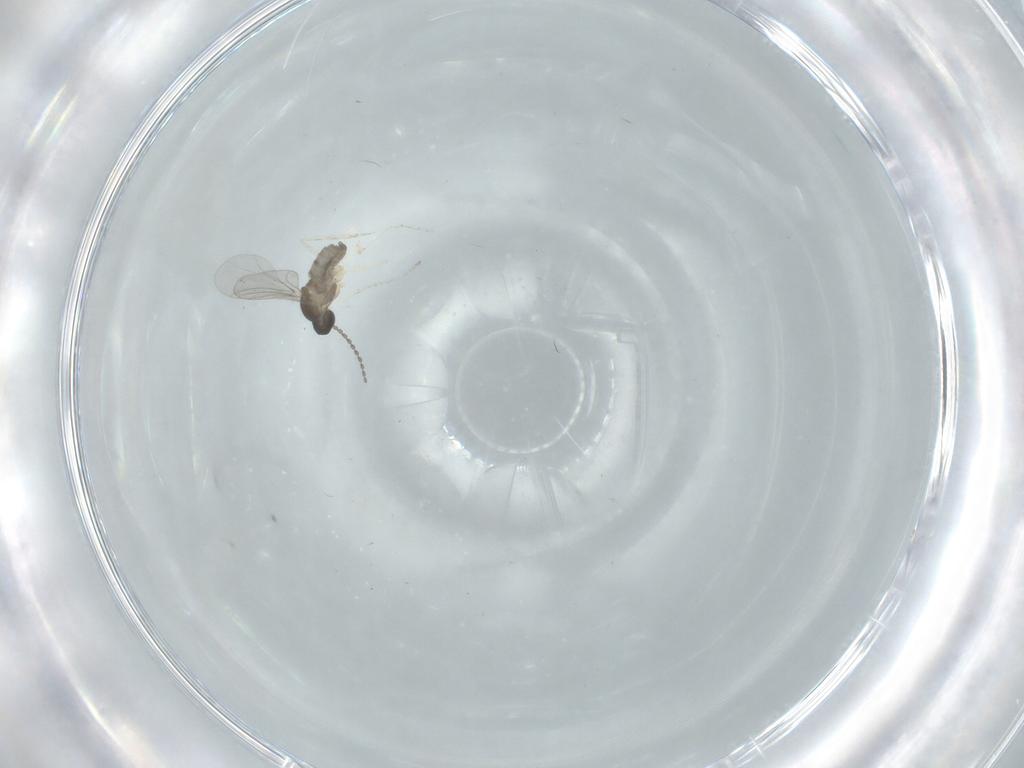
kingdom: Animalia
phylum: Arthropoda
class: Insecta
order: Diptera
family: Cecidomyiidae
